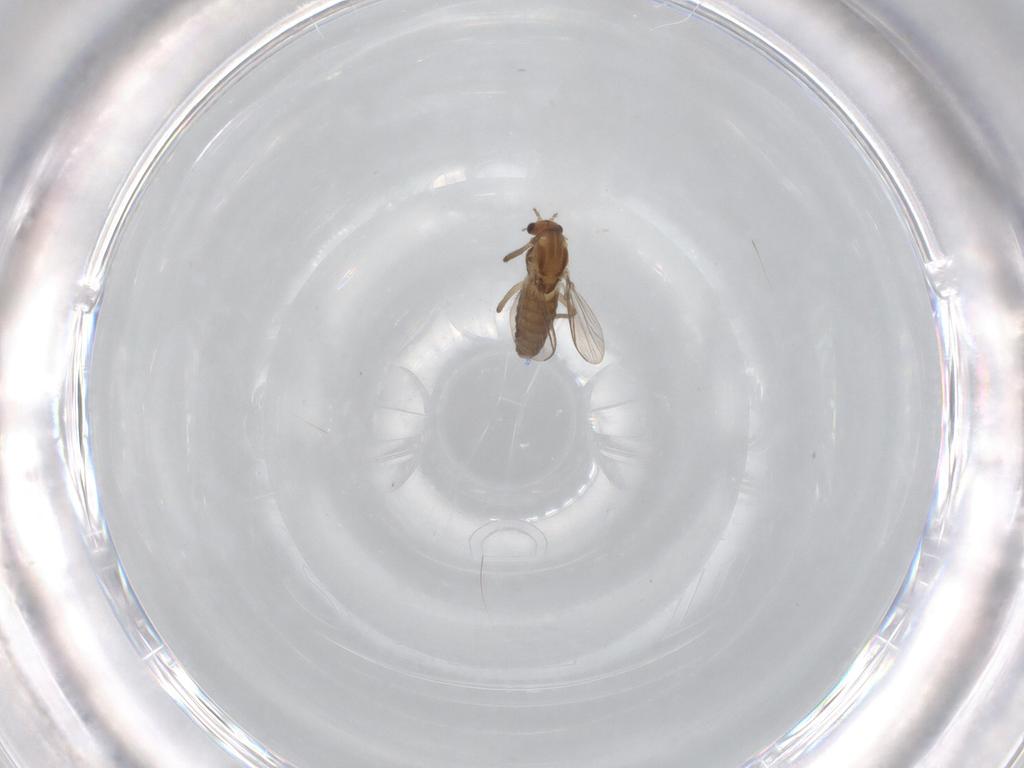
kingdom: Animalia
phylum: Arthropoda
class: Insecta
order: Diptera
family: Chironomidae
